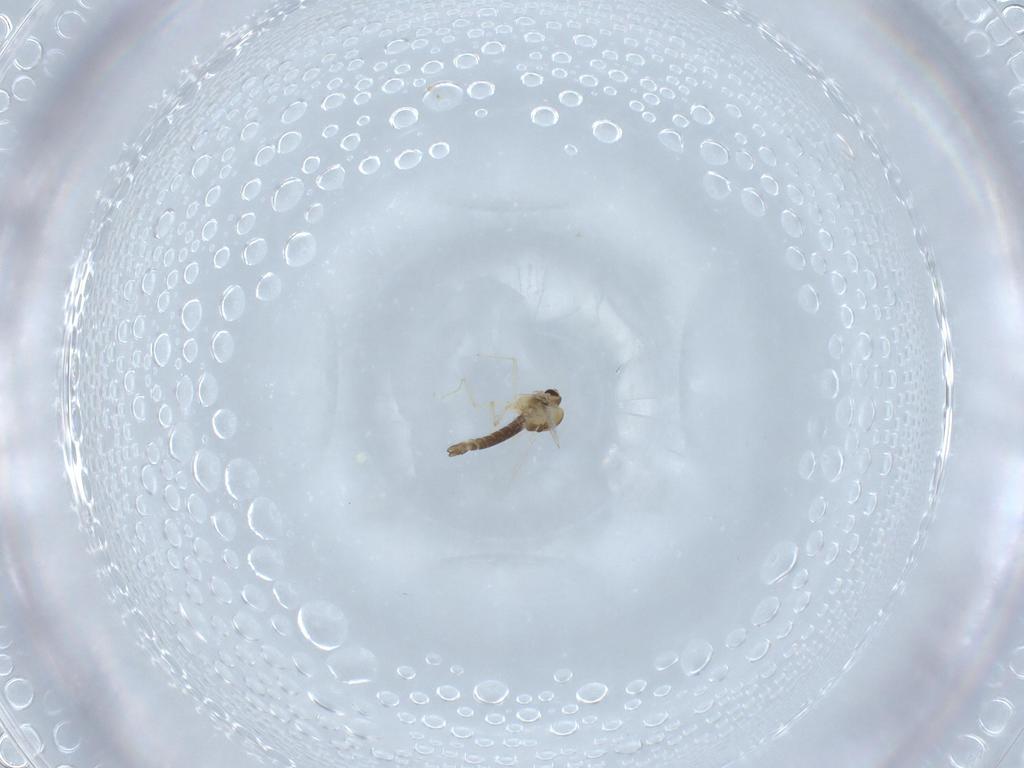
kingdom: Animalia
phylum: Arthropoda
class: Insecta
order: Diptera
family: Chironomidae
